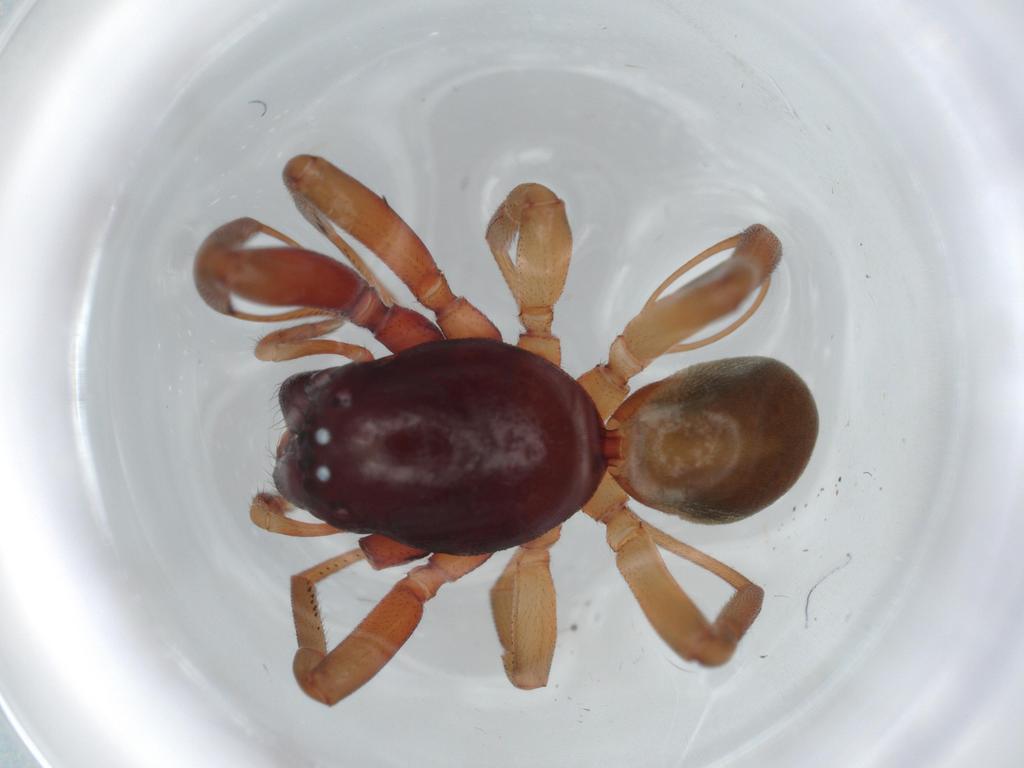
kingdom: Animalia
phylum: Arthropoda
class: Arachnida
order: Araneae
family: Trachelidae
